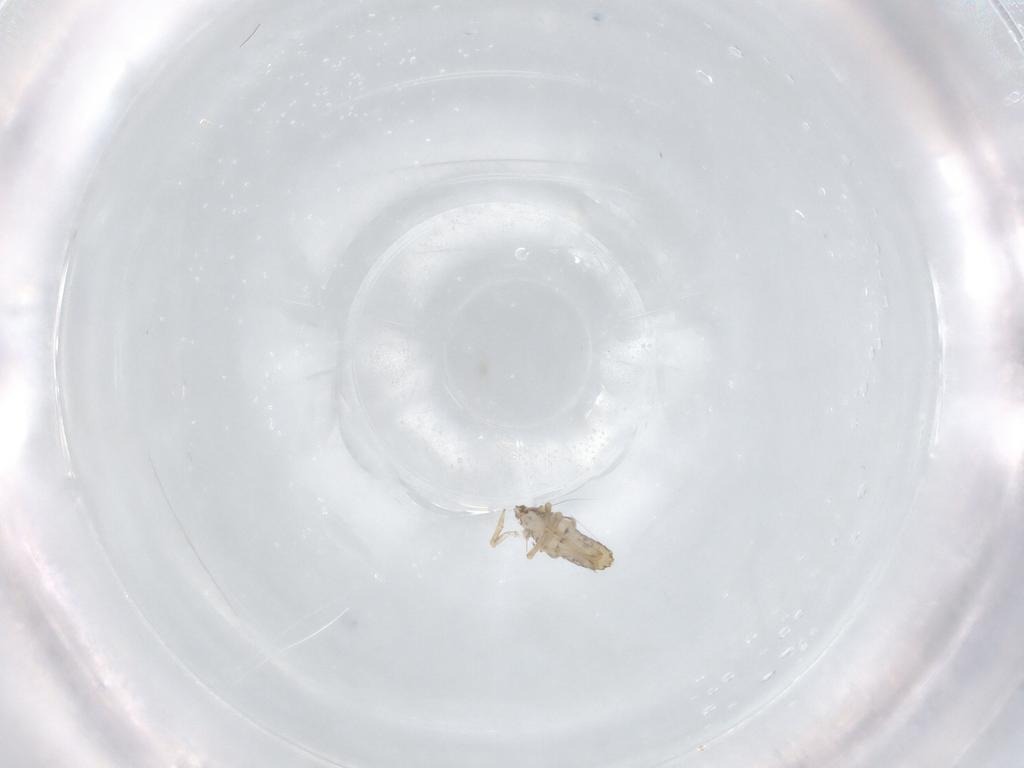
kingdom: Animalia
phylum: Arthropoda
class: Insecta
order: Hemiptera
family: Delphacidae
